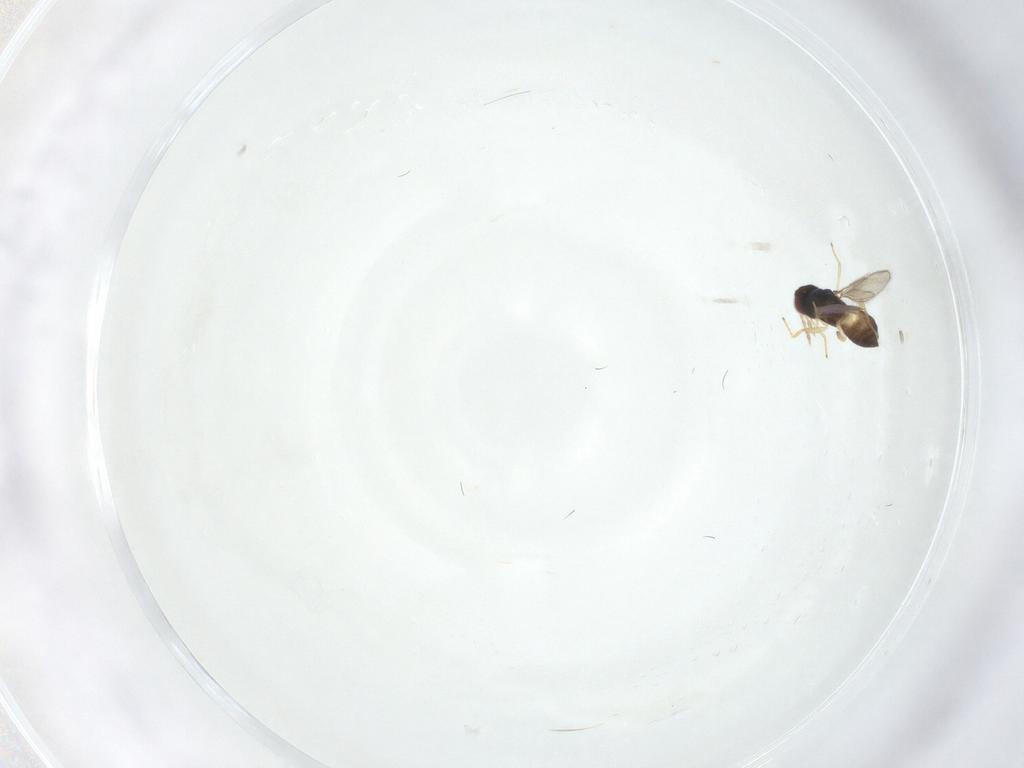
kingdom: Animalia
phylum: Arthropoda
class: Insecta
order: Hymenoptera
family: Eulophidae
